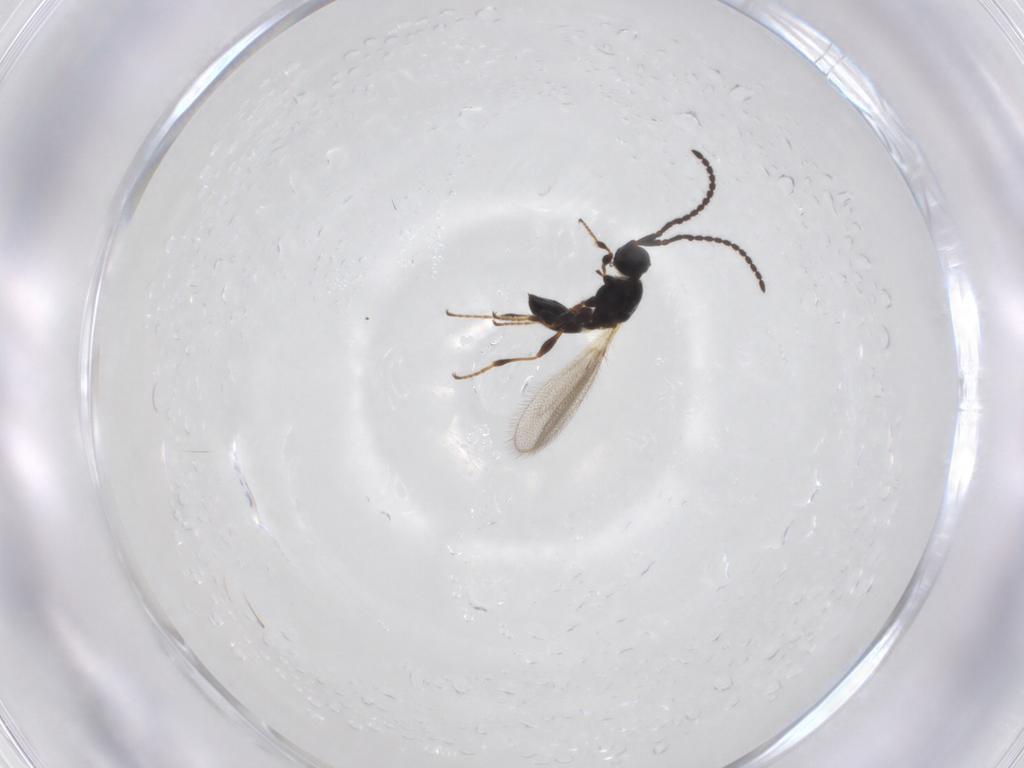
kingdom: Animalia
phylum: Arthropoda
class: Insecta
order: Hymenoptera
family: Diapriidae
